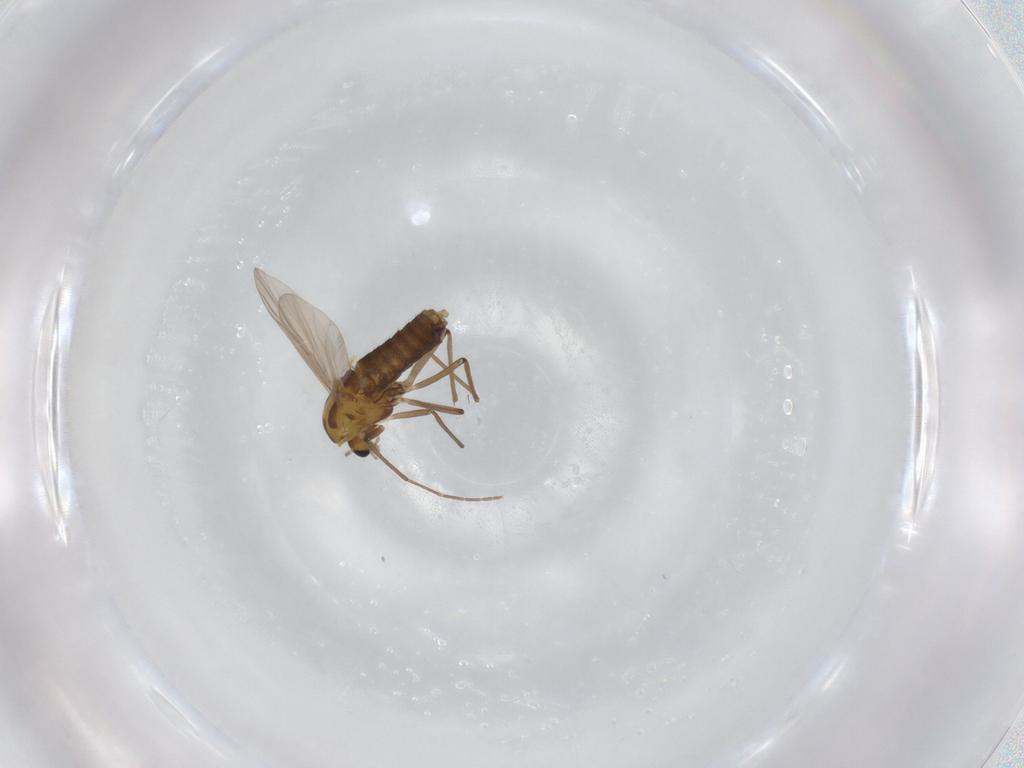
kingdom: Animalia
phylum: Arthropoda
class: Insecta
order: Diptera
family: Chironomidae
